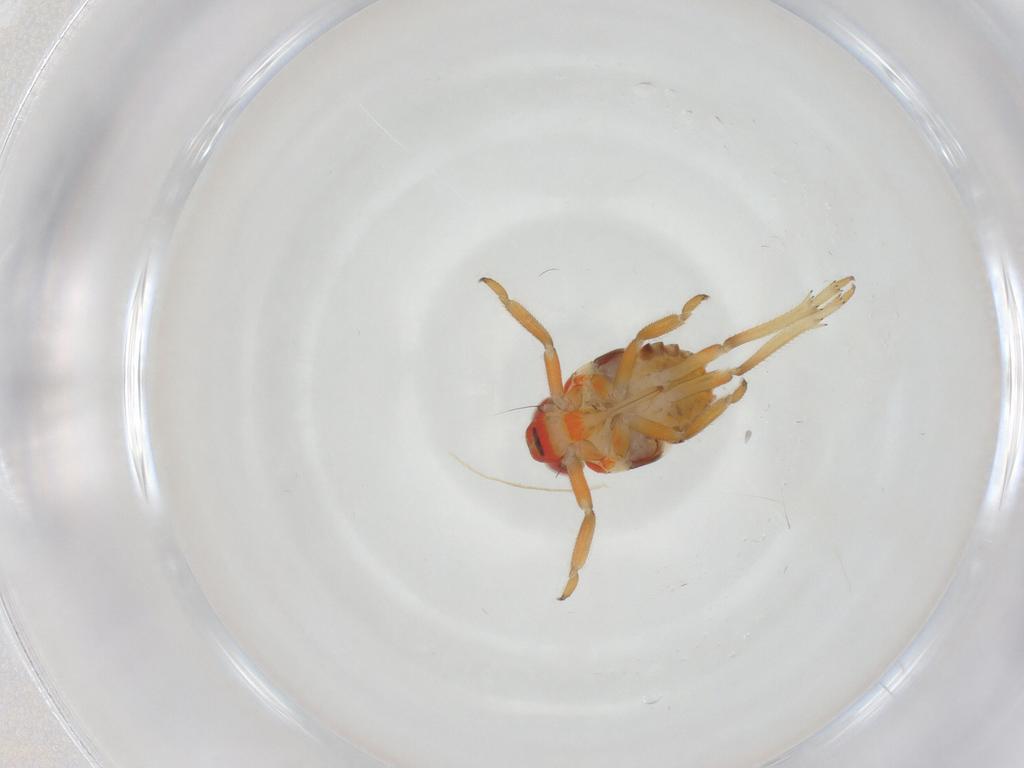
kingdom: Animalia
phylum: Arthropoda
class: Insecta
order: Hemiptera
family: Issidae
